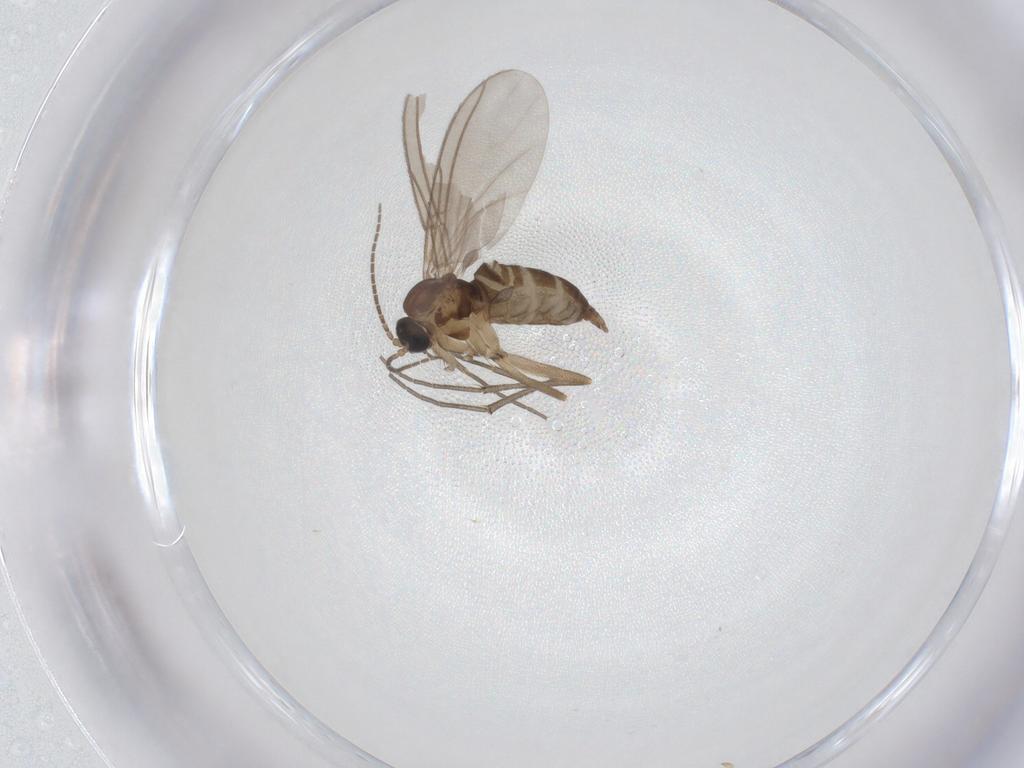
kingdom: Animalia
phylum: Arthropoda
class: Insecta
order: Diptera
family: Sciaridae
